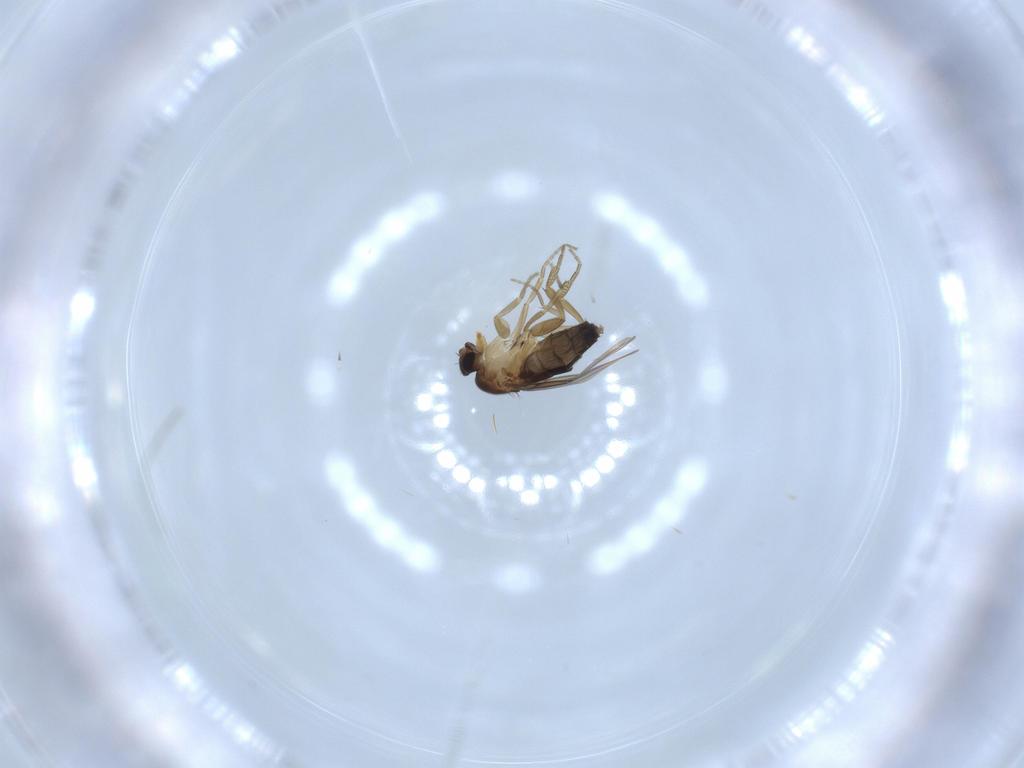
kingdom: Animalia
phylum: Arthropoda
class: Insecta
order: Diptera
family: Phoridae
